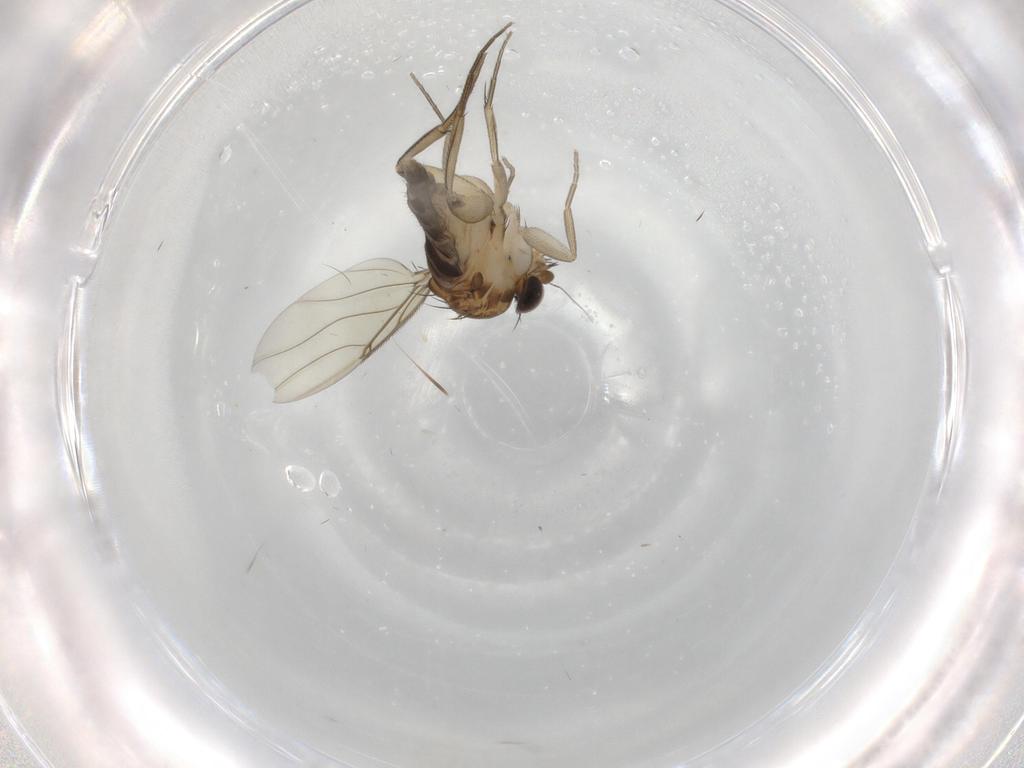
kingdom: Animalia
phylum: Arthropoda
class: Insecta
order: Diptera
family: Phoridae
